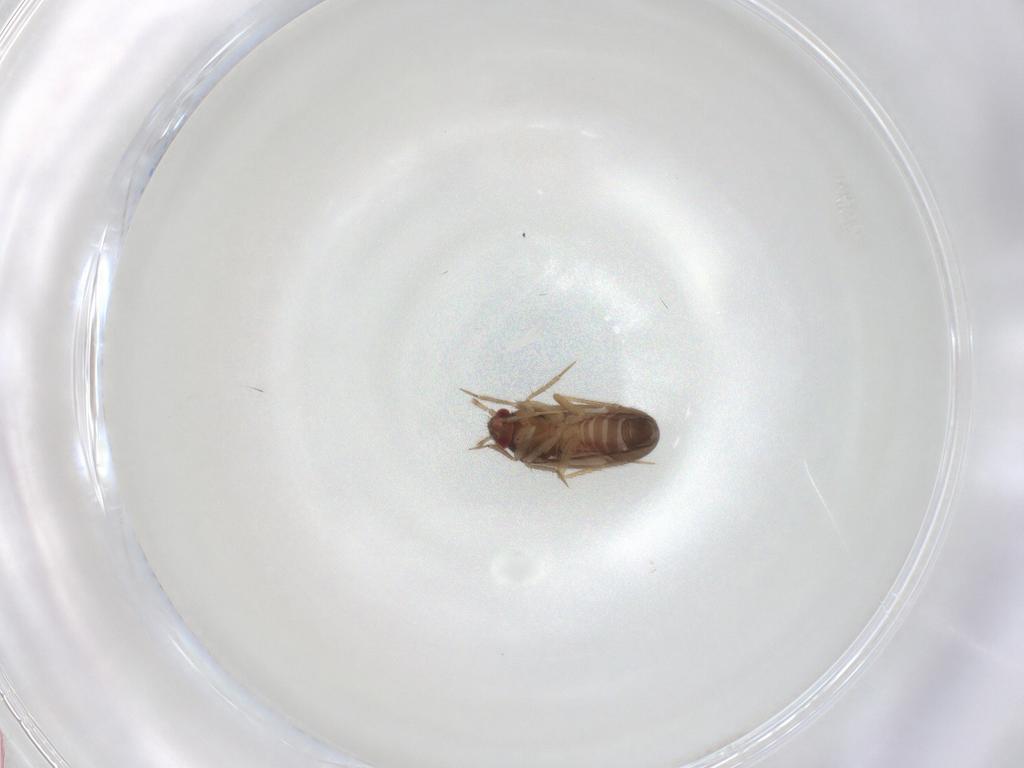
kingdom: Animalia
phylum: Arthropoda
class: Insecta
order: Hemiptera
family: Ceratocombidae
